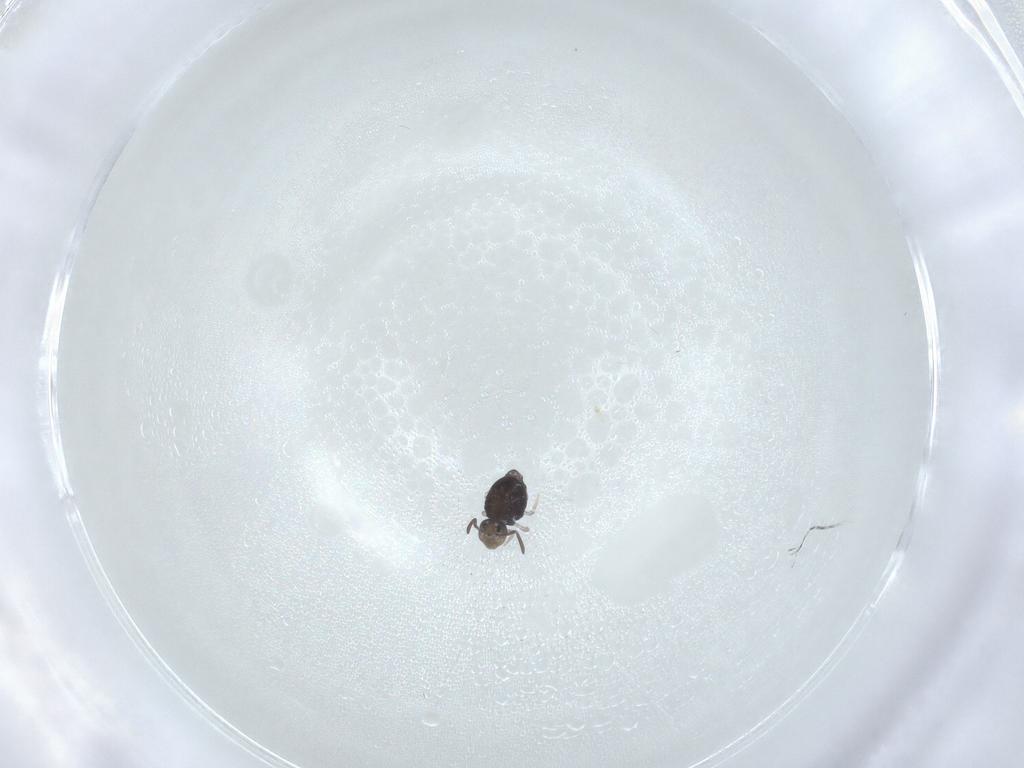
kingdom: Animalia
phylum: Arthropoda
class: Collembola
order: Symphypleona
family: Katiannidae
